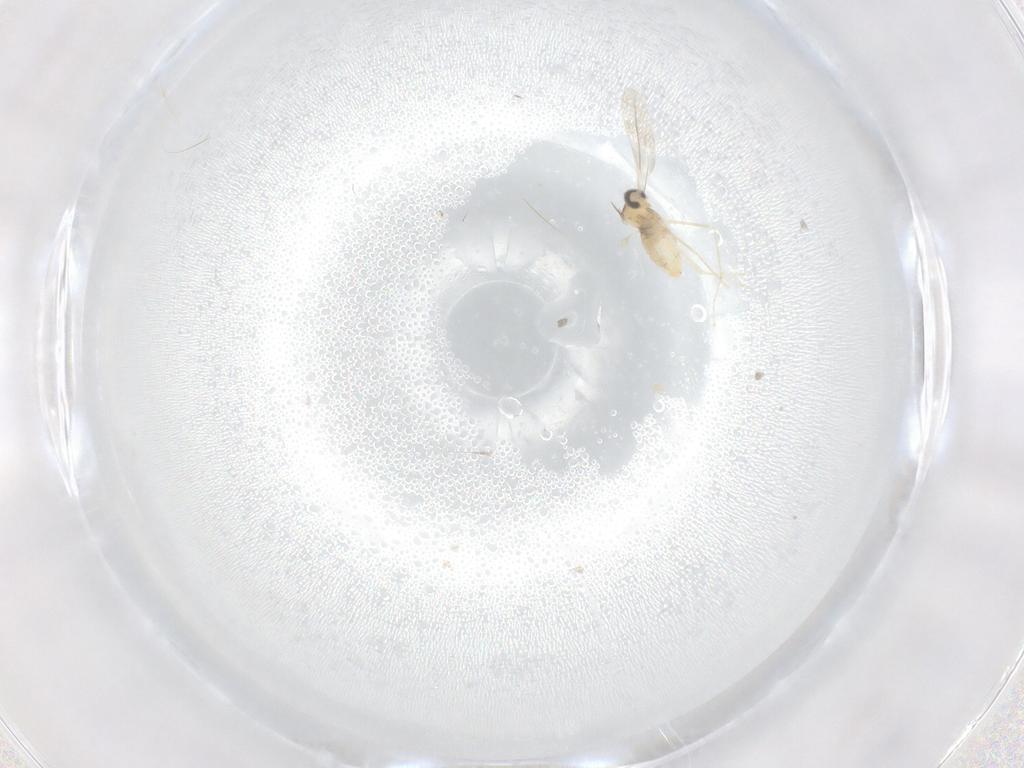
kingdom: Animalia
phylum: Arthropoda
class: Insecta
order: Diptera
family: Cecidomyiidae
